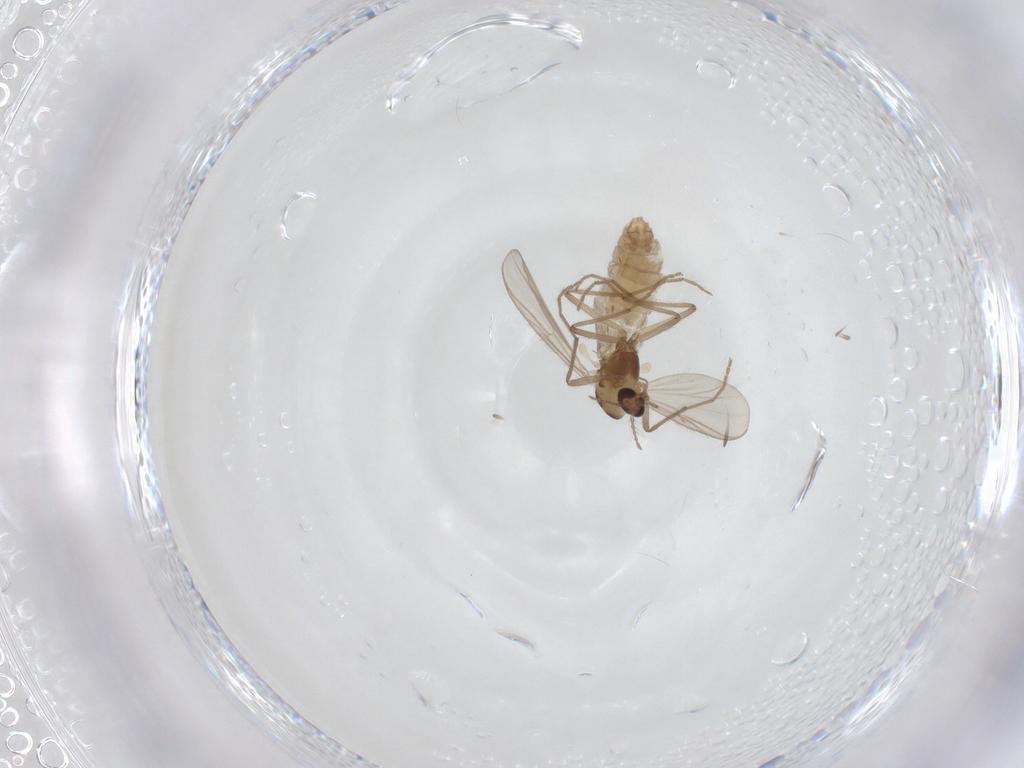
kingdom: Animalia
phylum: Arthropoda
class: Insecta
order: Diptera
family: Chironomidae
